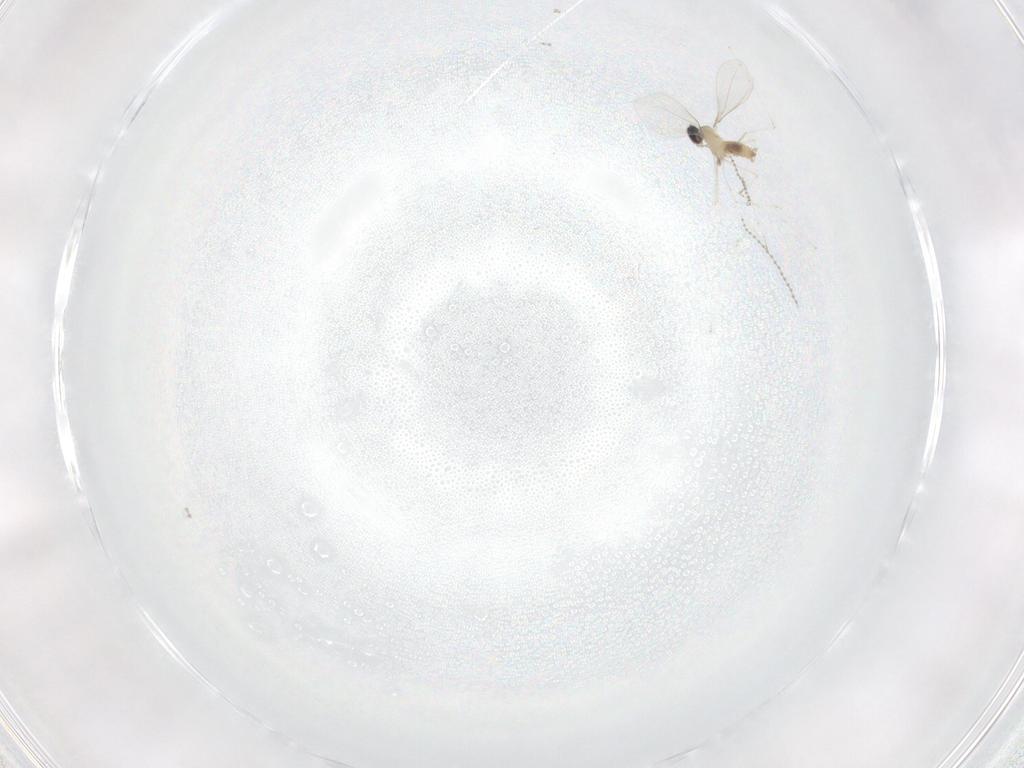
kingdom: Animalia
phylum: Arthropoda
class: Insecta
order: Diptera
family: Cecidomyiidae
